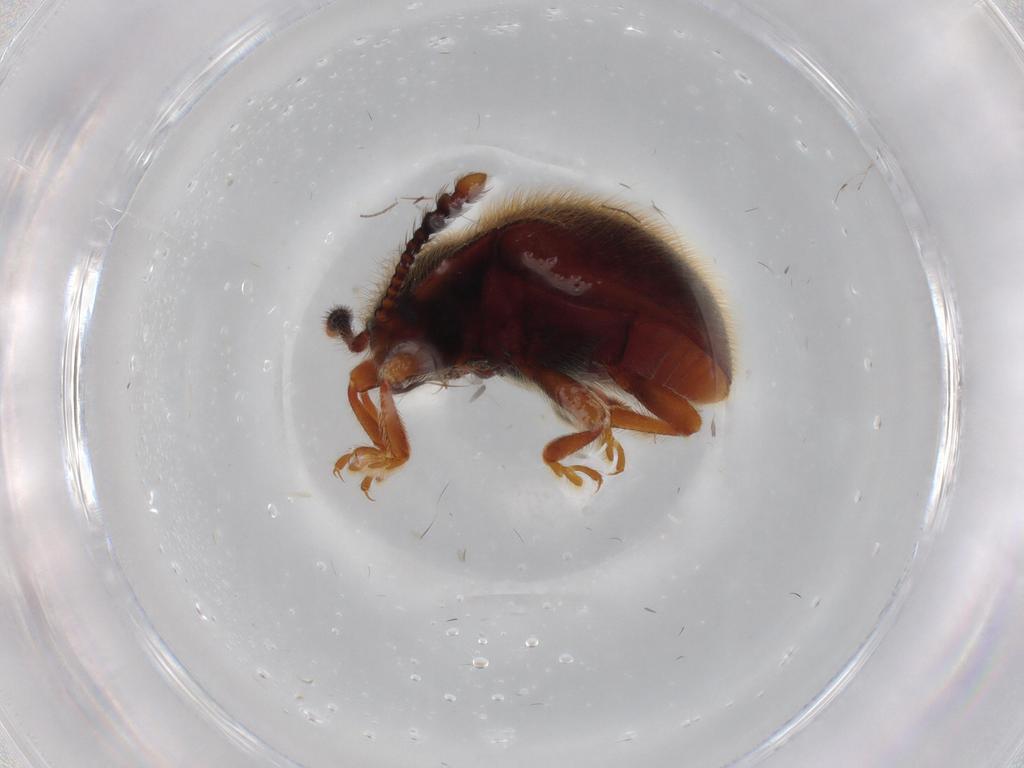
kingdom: Animalia
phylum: Arthropoda
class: Insecta
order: Coleoptera
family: Endomychidae
